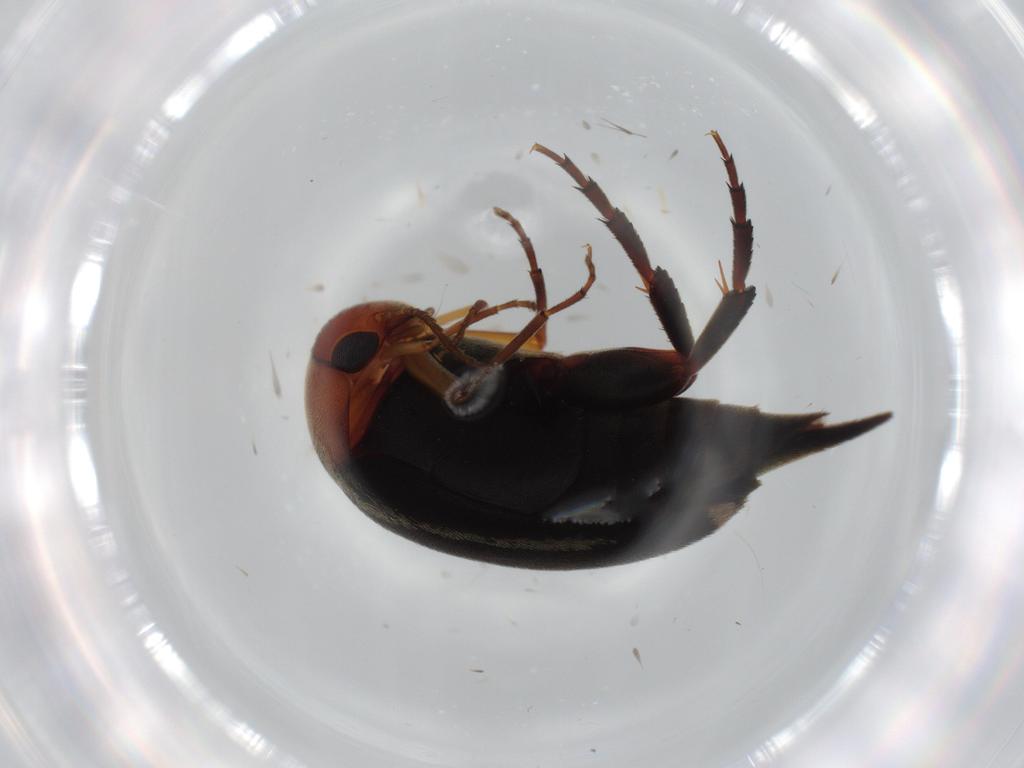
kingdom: Animalia
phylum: Arthropoda
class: Insecta
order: Coleoptera
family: Mordellidae
